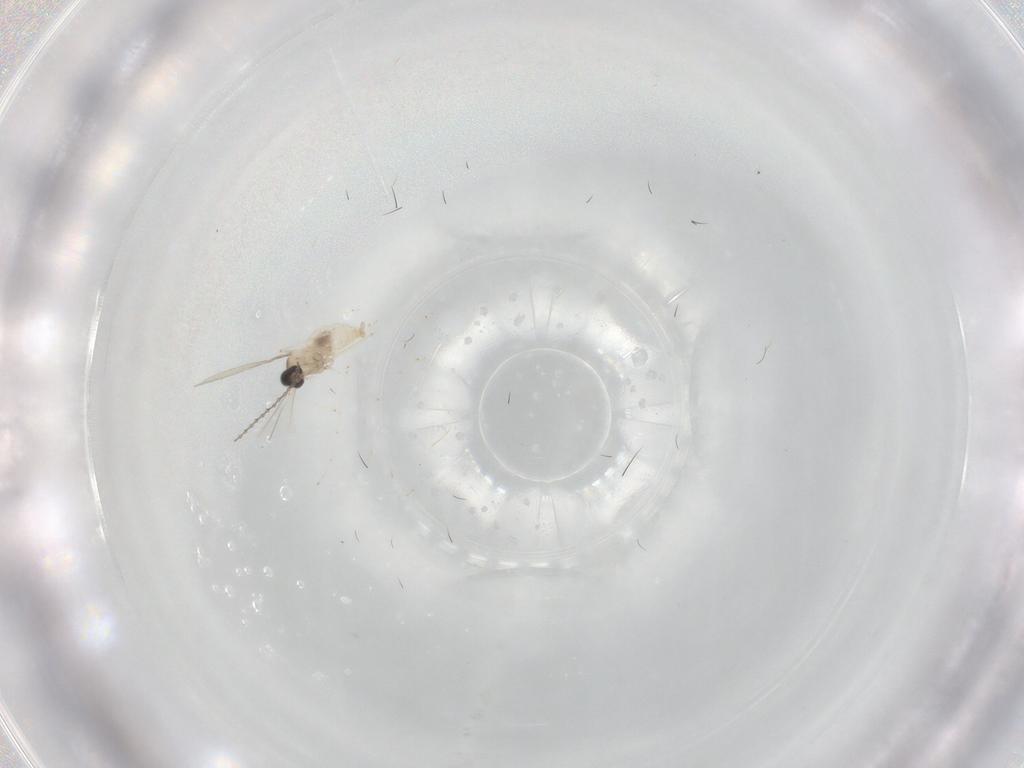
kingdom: Animalia
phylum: Arthropoda
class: Insecta
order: Diptera
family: Cecidomyiidae
